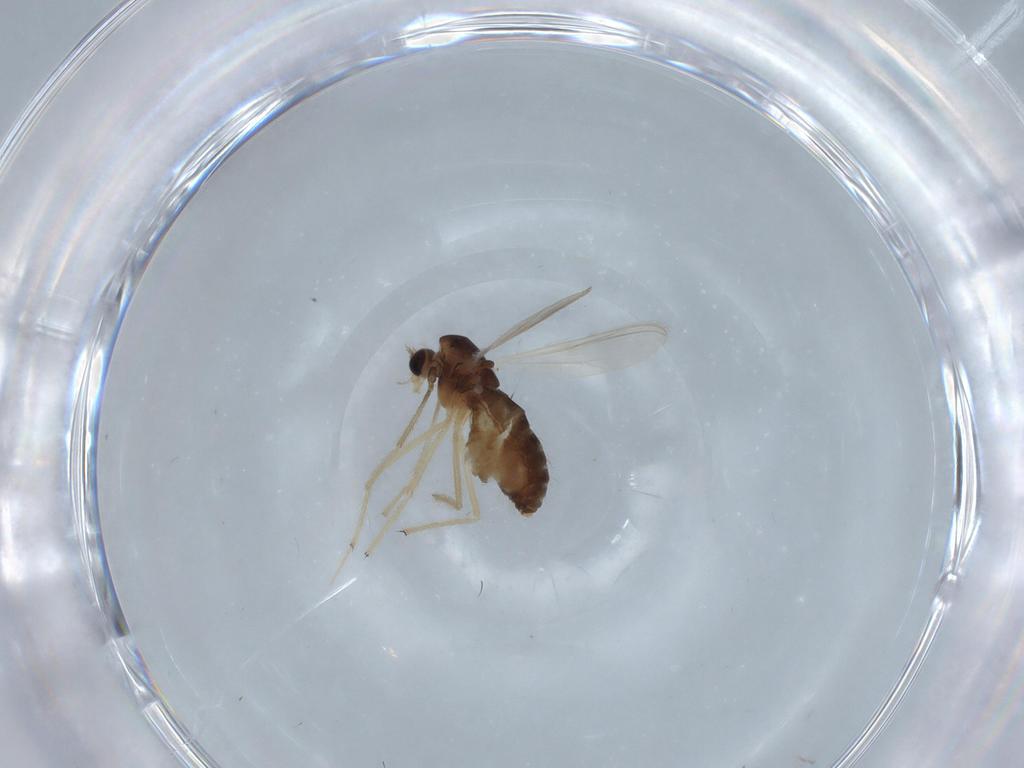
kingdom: Animalia
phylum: Arthropoda
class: Insecta
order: Diptera
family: Chironomidae
